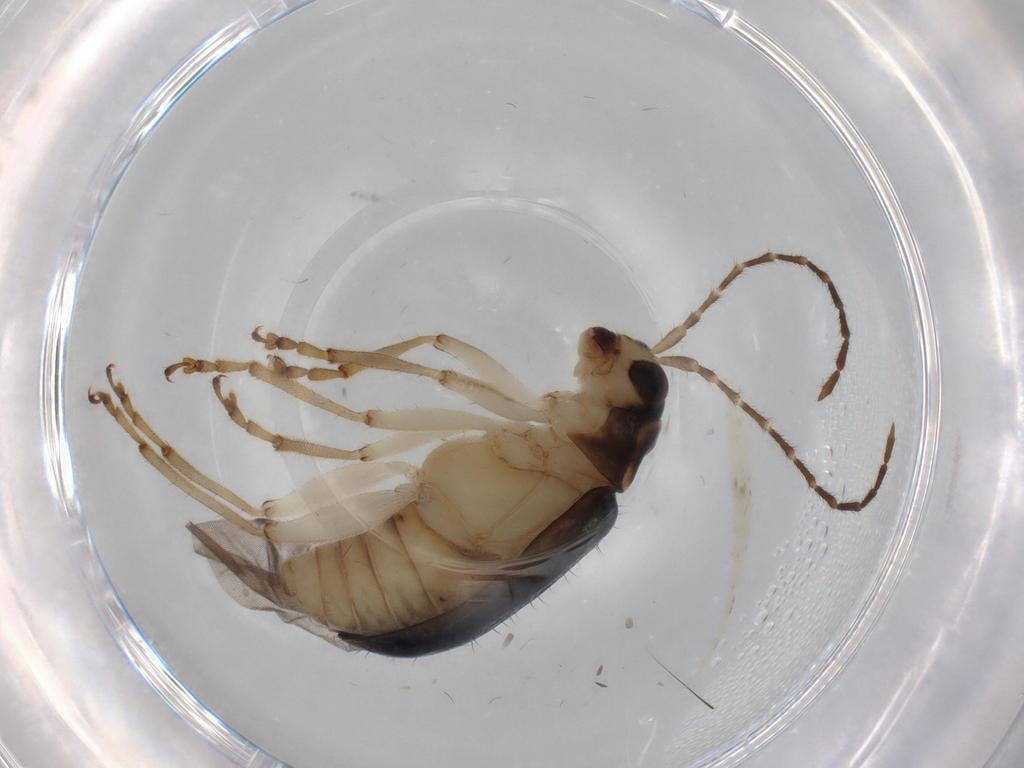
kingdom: Animalia
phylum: Arthropoda
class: Insecta
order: Coleoptera
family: Chrysomelidae
